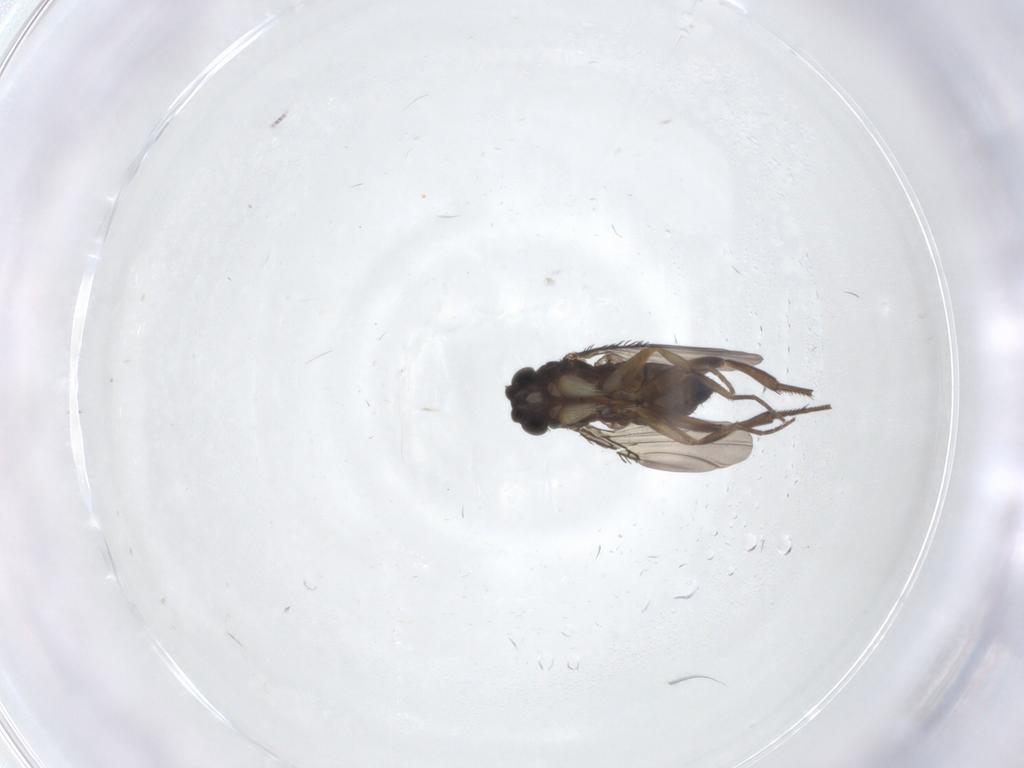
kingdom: Animalia
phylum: Arthropoda
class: Insecta
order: Diptera
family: Phoridae
